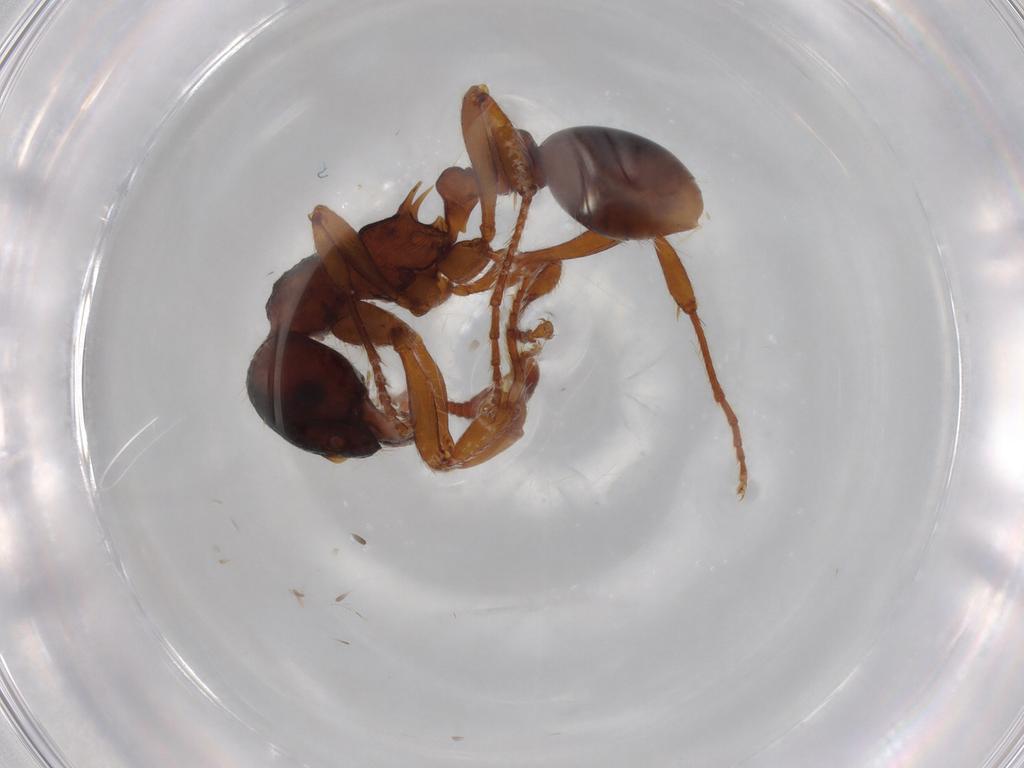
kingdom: Animalia
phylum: Arthropoda
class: Insecta
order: Hymenoptera
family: Formicidae
